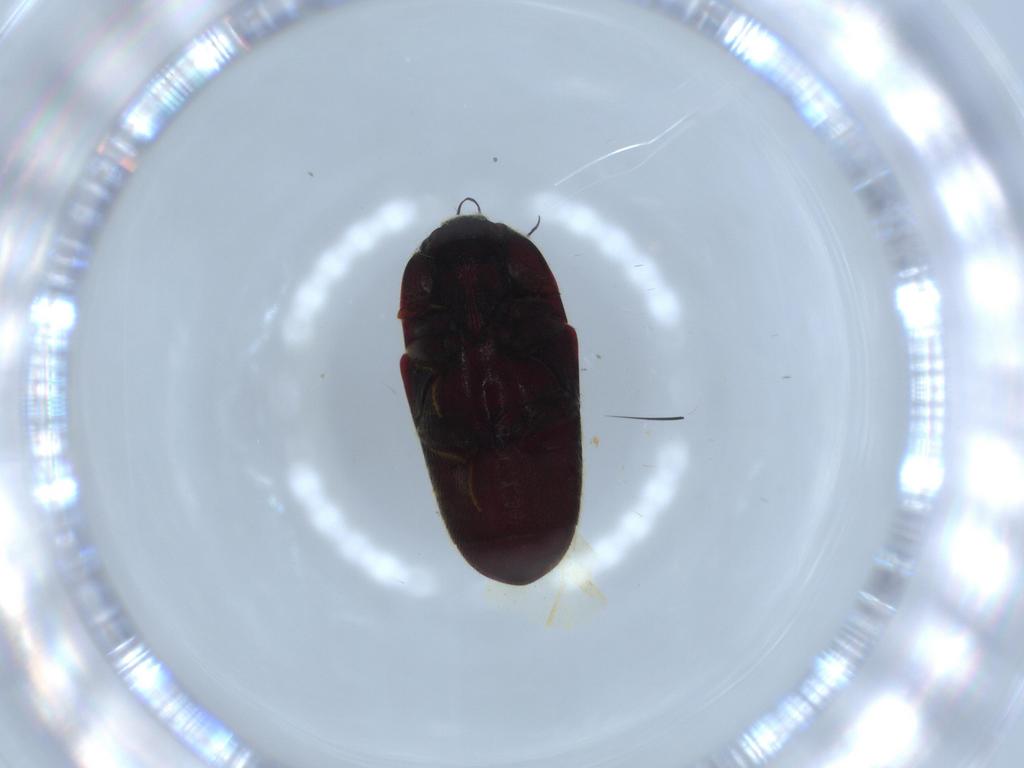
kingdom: Animalia
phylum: Arthropoda
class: Insecta
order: Coleoptera
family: Throscidae
